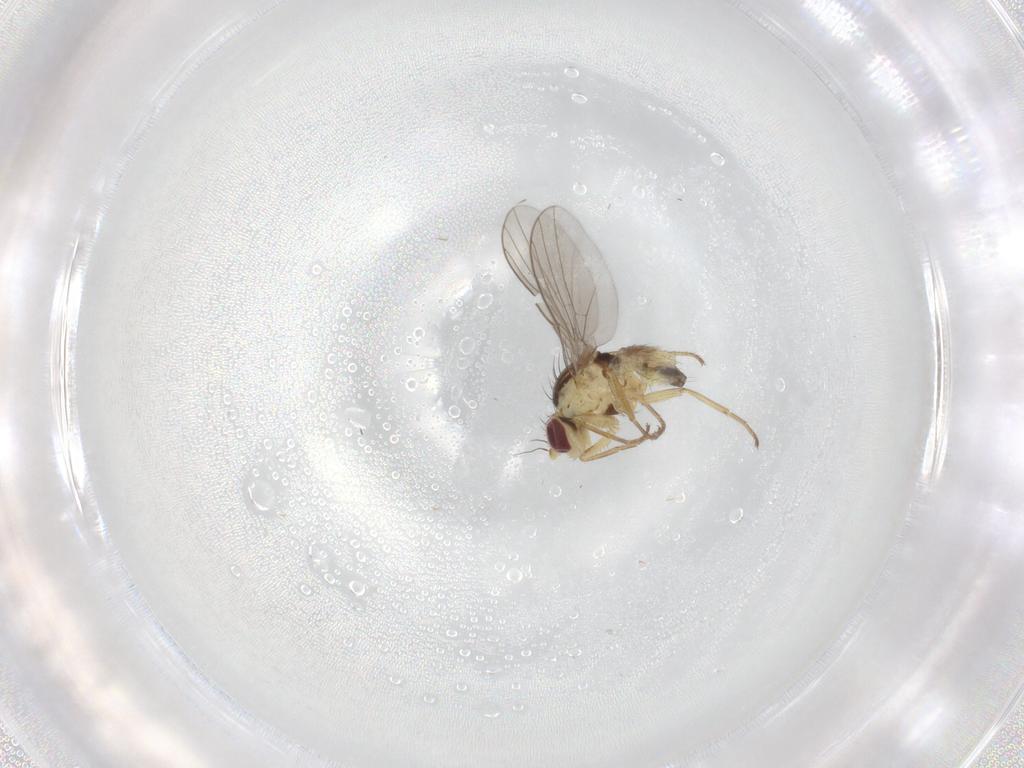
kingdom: Animalia
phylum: Arthropoda
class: Insecta
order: Diptera
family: Agromyzidae
